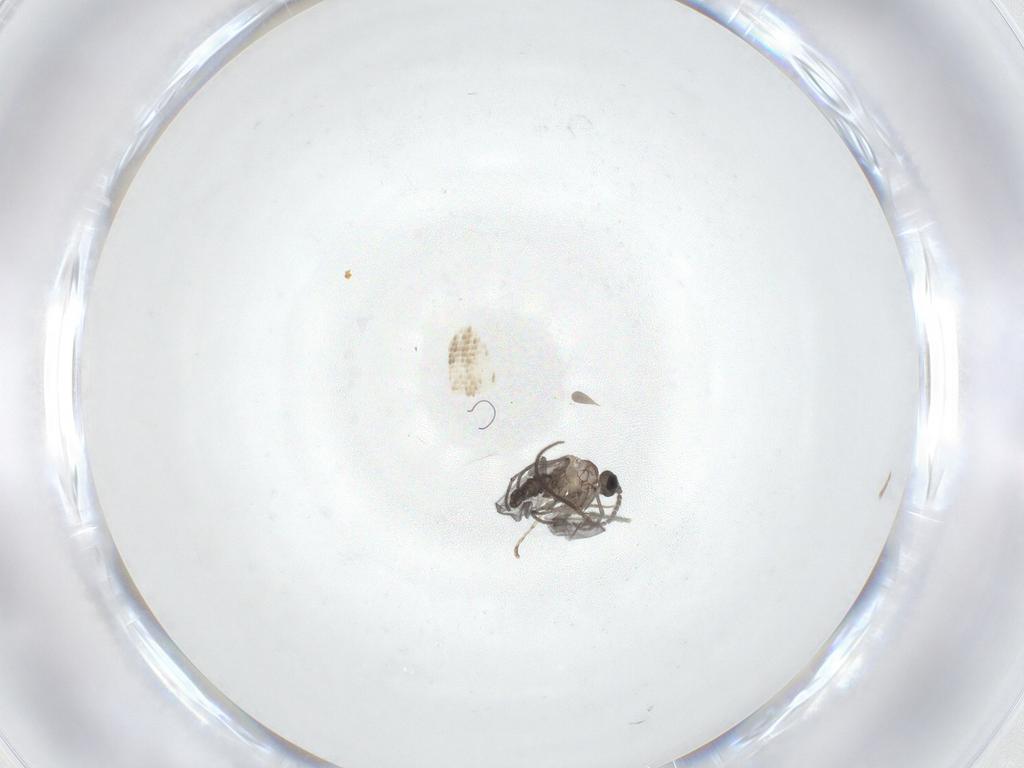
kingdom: Animalia
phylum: Arthropoda
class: Insecta
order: Diptera
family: Sciaridae
